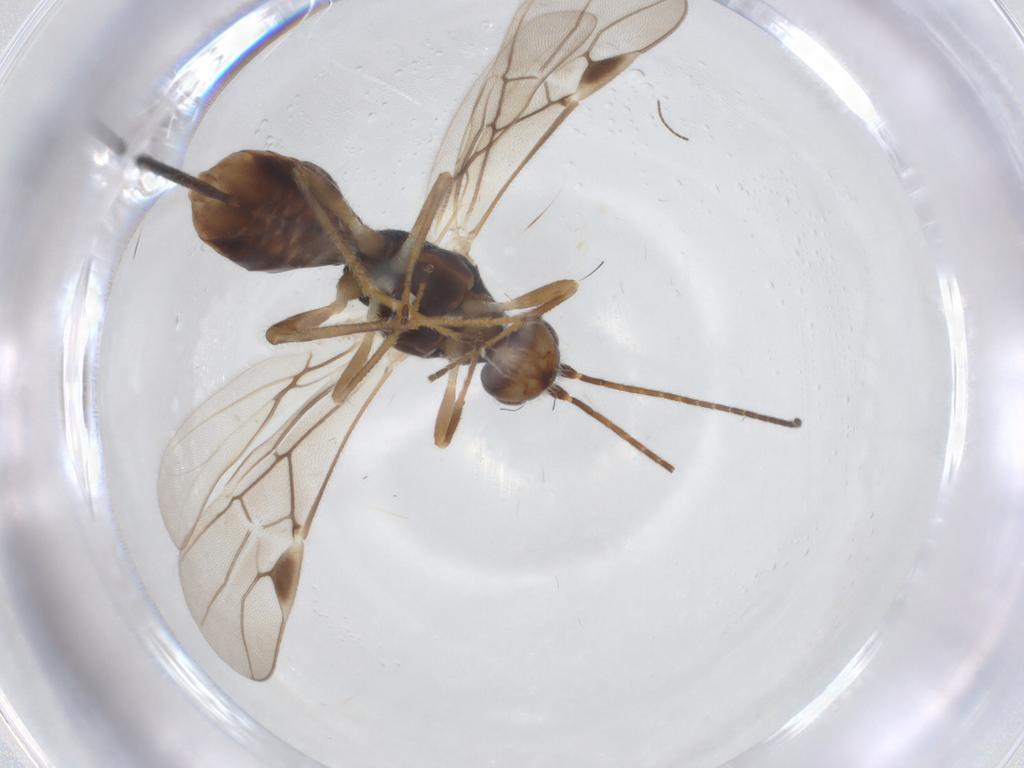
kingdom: Animalia
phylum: Arthropoda
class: Insecta
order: Hymenoptera
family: Braconidae
